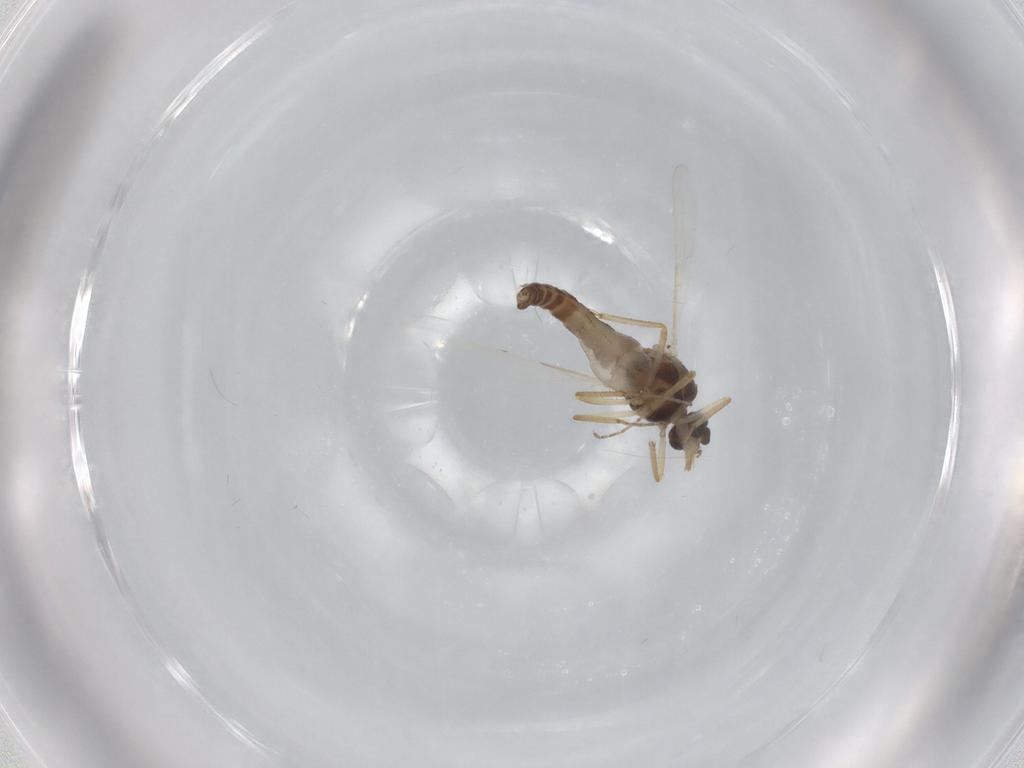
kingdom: Animalia
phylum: Arthropoda
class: Insecta
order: Diptera
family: Ceratopogonidae
